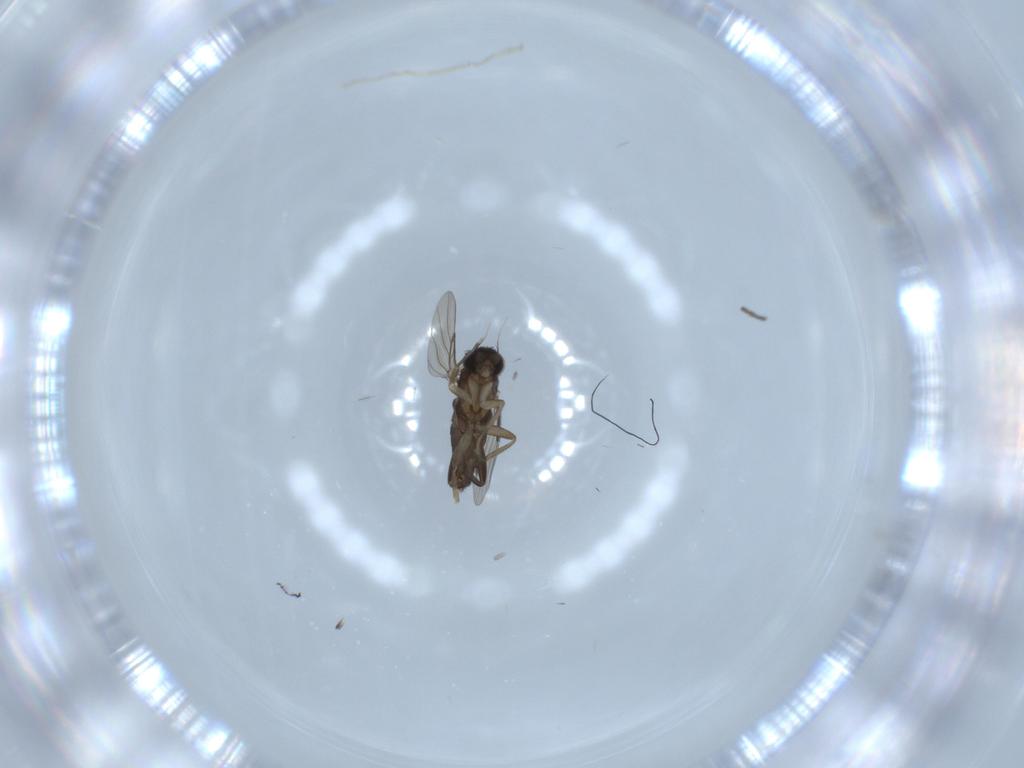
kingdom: Animalia
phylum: Arthropoda
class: Insecta
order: Diptera
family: Phoridae
